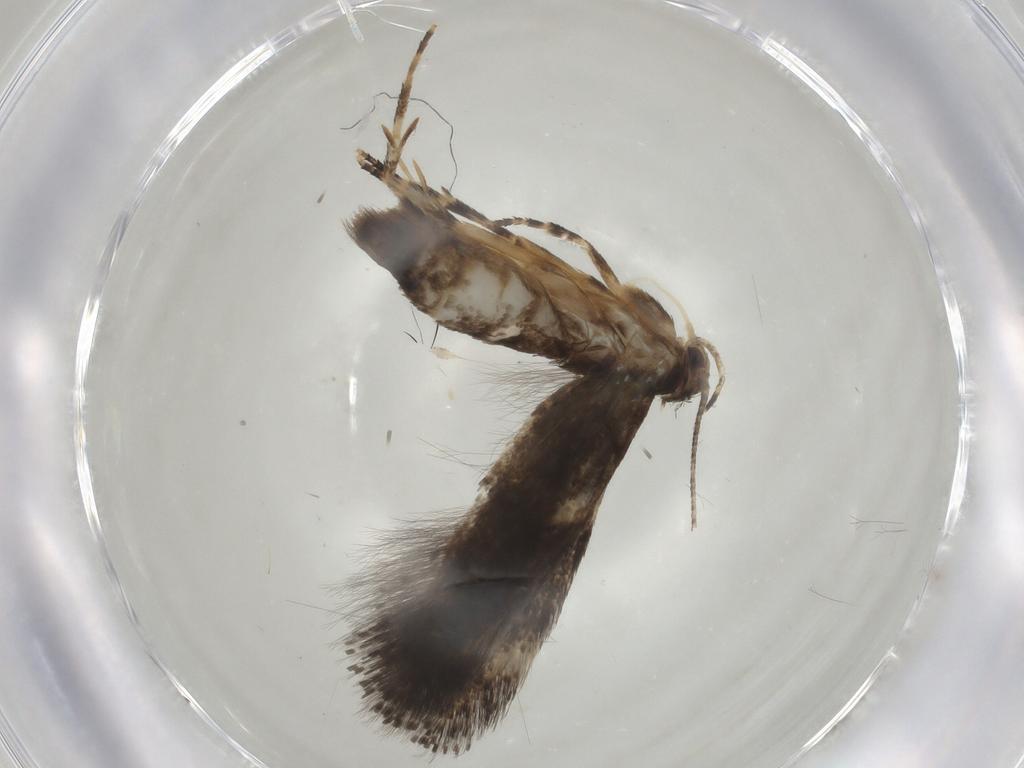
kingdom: Animalia
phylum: Arthropoda
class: Insecta
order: Lepidoptera
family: Elachistidae
